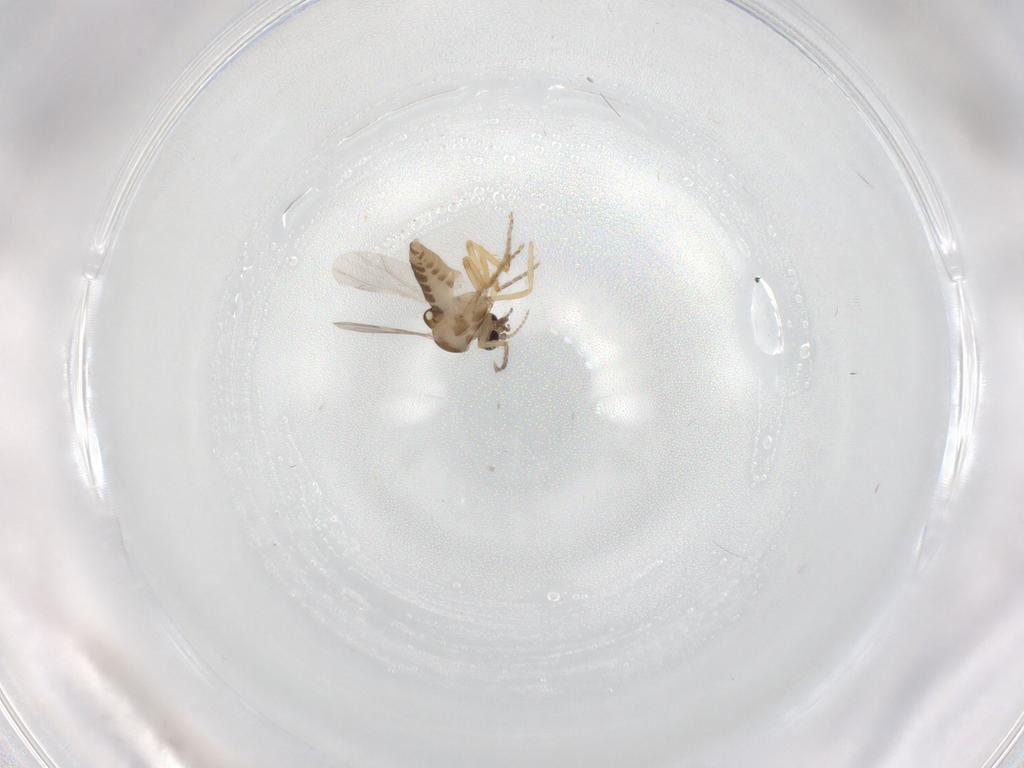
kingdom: Animalia
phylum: Arthropoda
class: Insecta
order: Diptera
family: Ceratopogonidae
